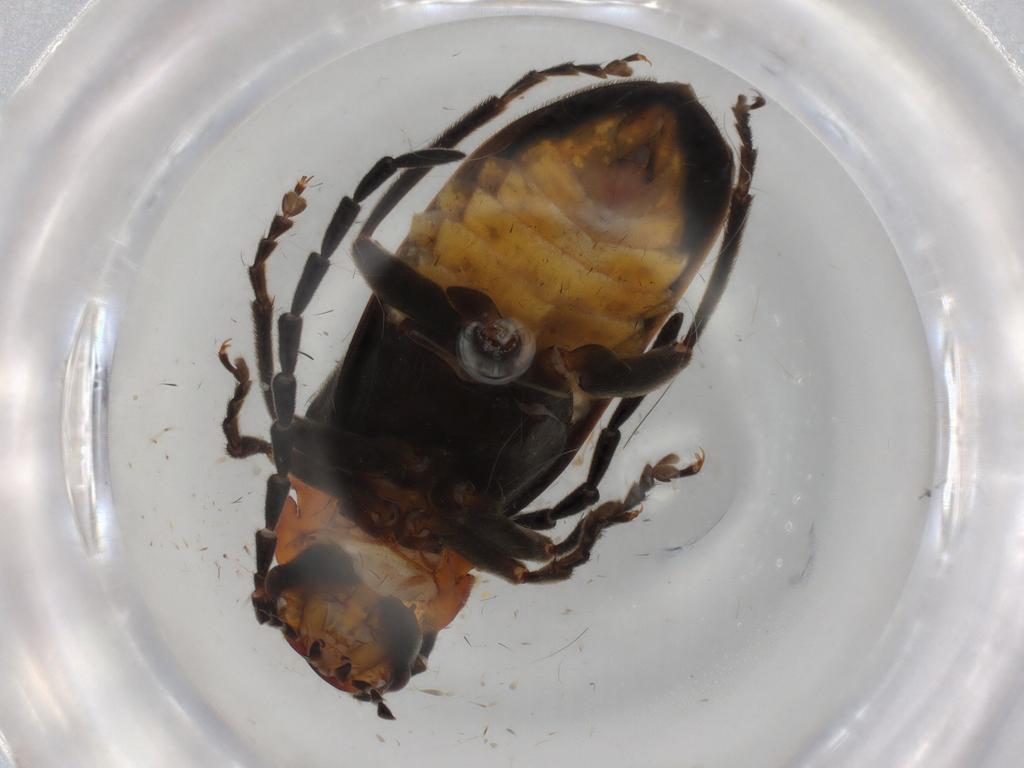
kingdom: Animalia
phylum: Arthropoda
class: Insecta
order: Coleoptera
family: Cantharidae
